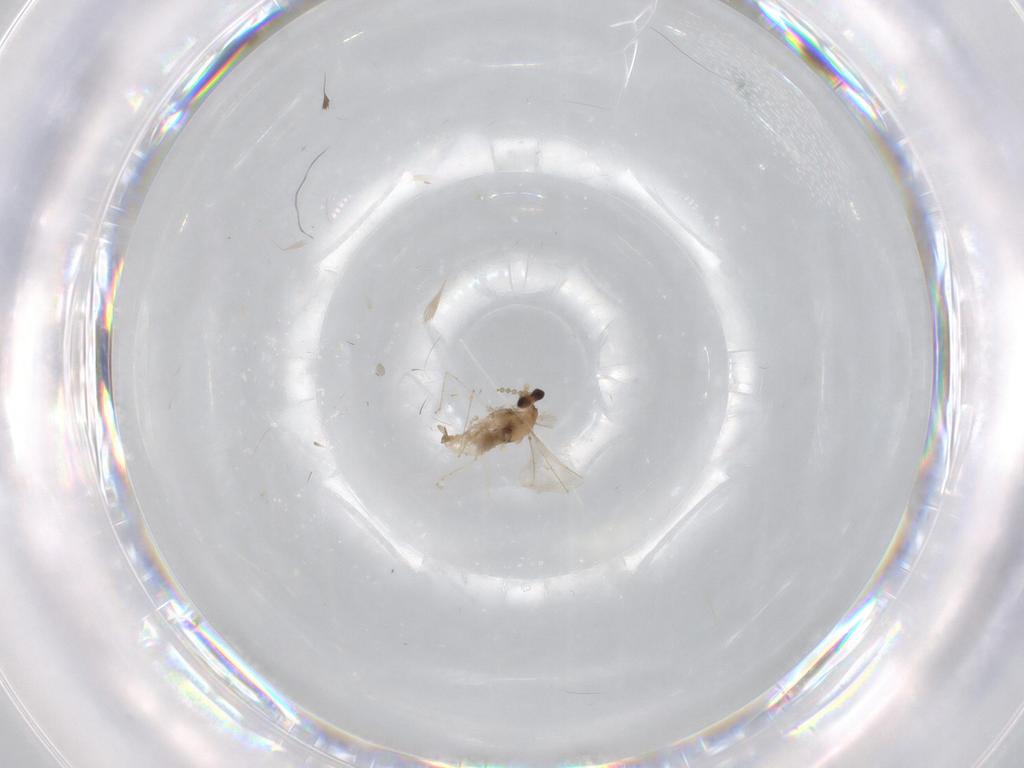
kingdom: Animalia
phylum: Arthropoda
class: Insecta
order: Diptera
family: Cecidomyiidae
